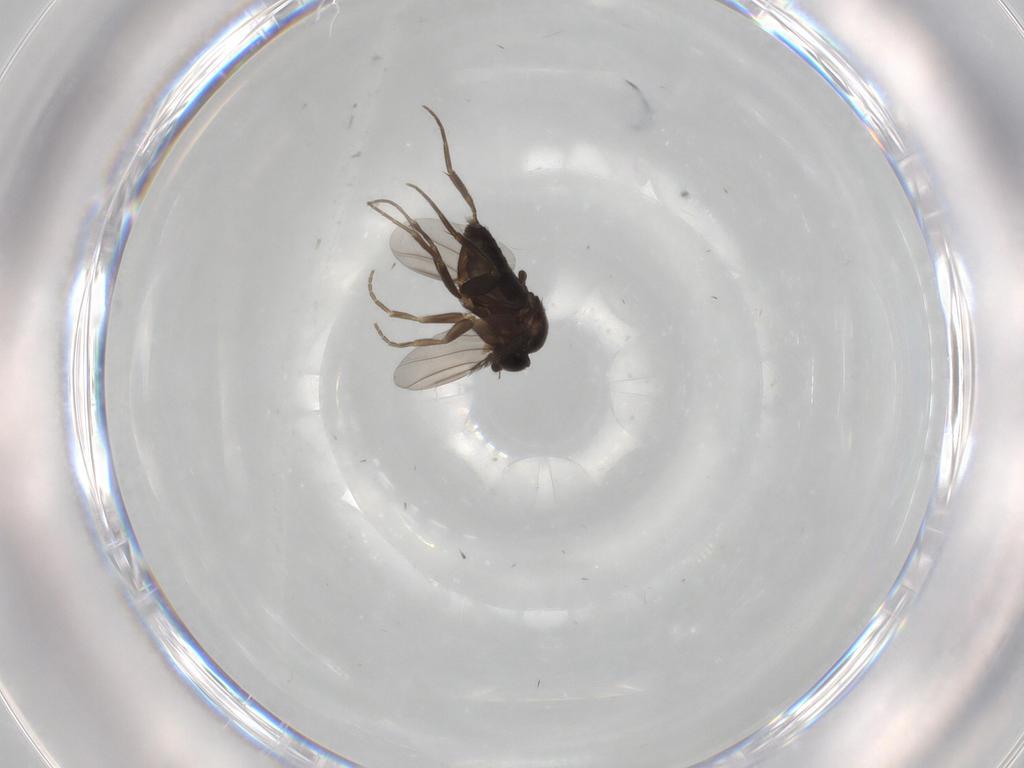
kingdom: Animalia
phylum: Arthropoda
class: Insecta
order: Diptera
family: Phoridae
